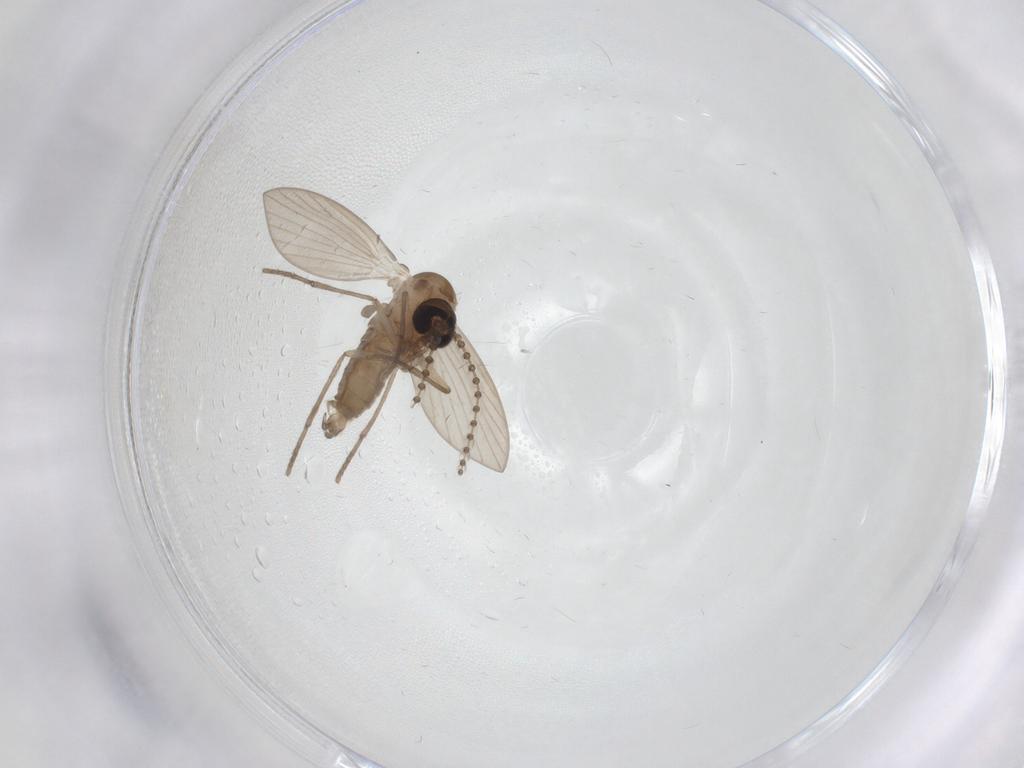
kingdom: Animalia
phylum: Arthropoda
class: Insecta
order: Diptera
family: Psychodidae
